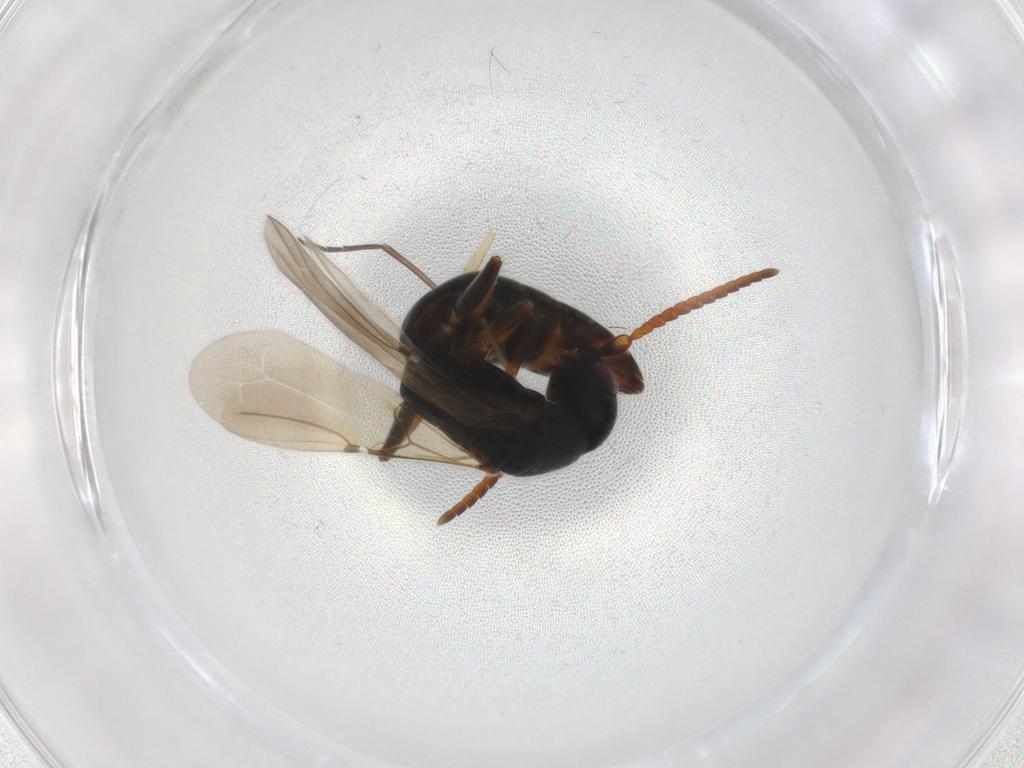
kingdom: Animalia
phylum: Arthropoda
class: Insecta
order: Hymenoptera
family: Bethylidae
